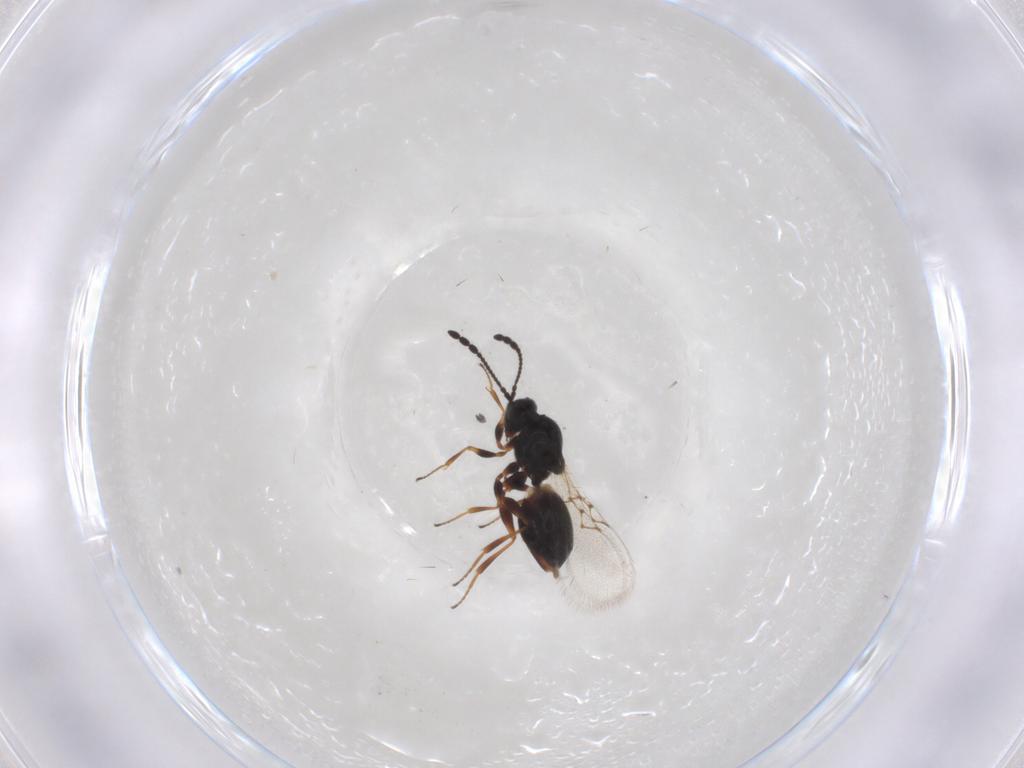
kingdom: Animalia
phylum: Arthropoda
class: Insecta
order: Hymenoptera
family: Figitidae
